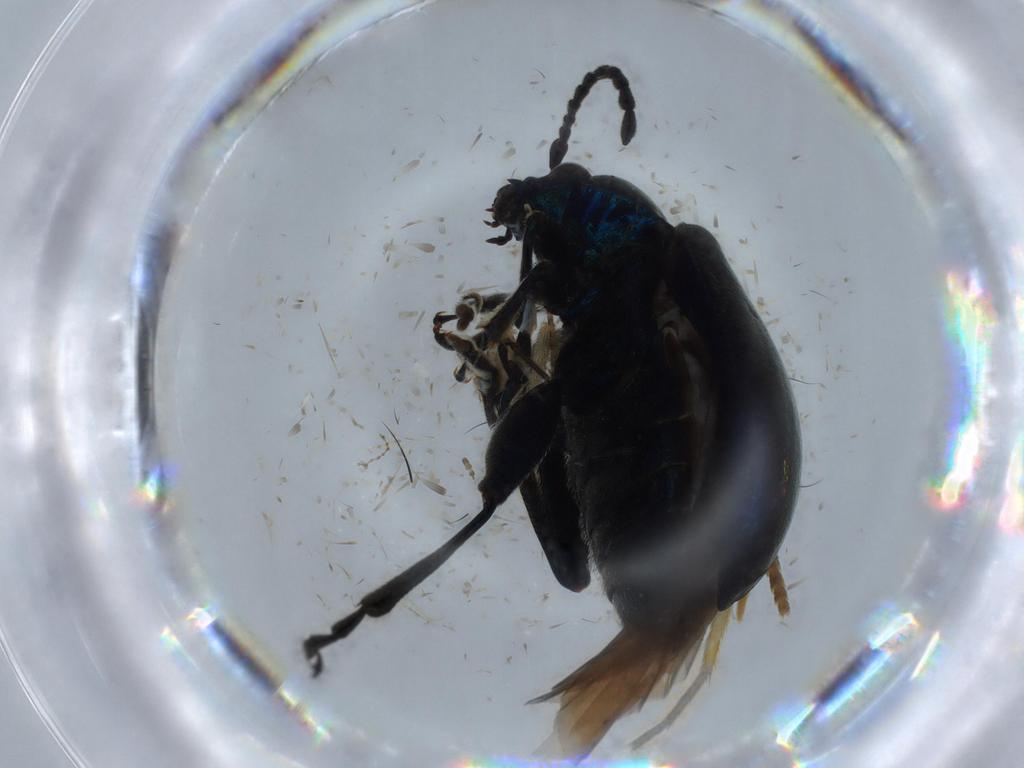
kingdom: Animalia
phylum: Arthropoda
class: Insecta
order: Coleoptera
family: Chrysomelidae
